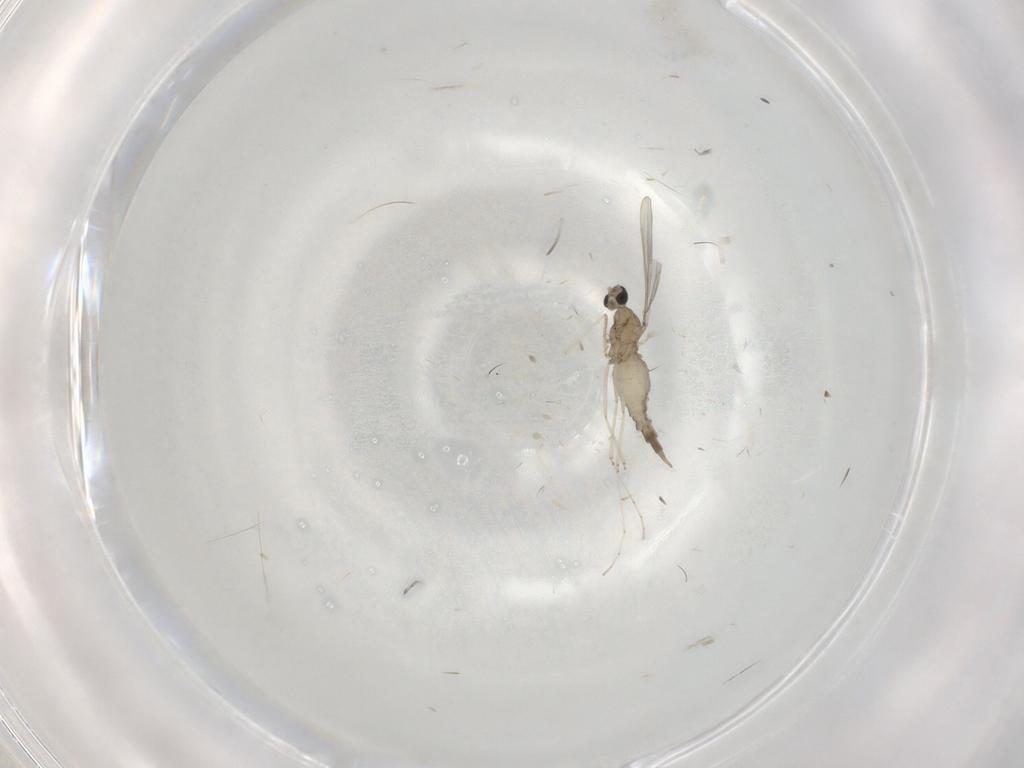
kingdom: Animalia
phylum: Arthropoda
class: Insecta
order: Diptera
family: Cecidomyiidae
